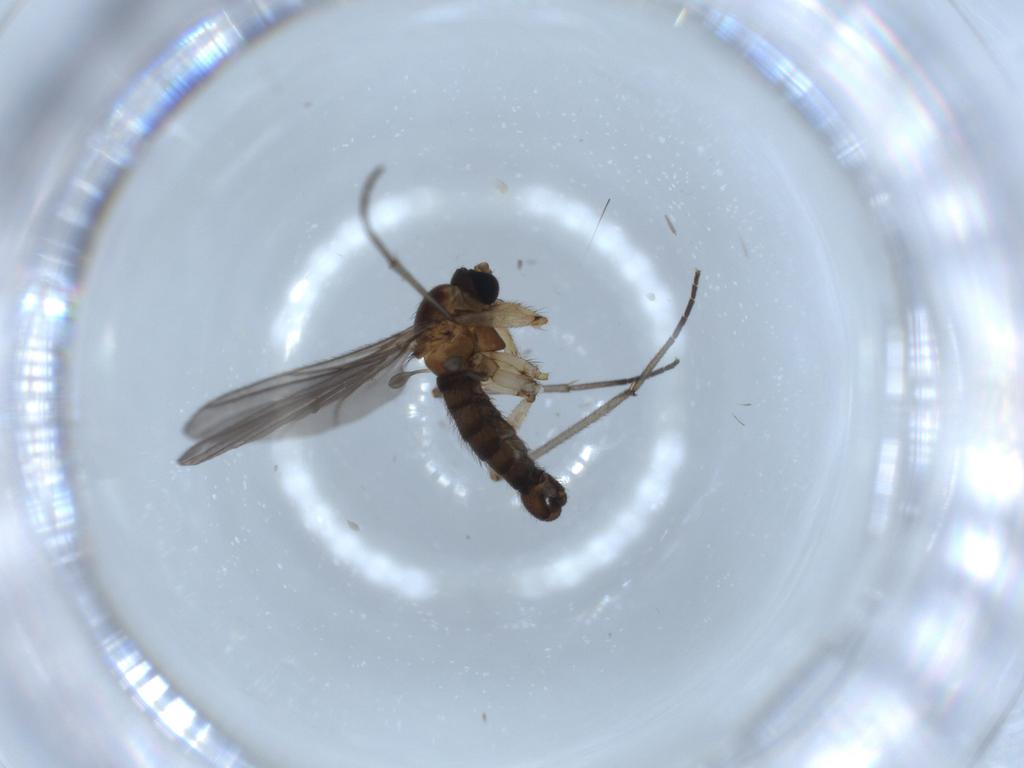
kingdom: Animalia
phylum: Arthropoda
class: Insecta
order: Diptera
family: Sciaridae
